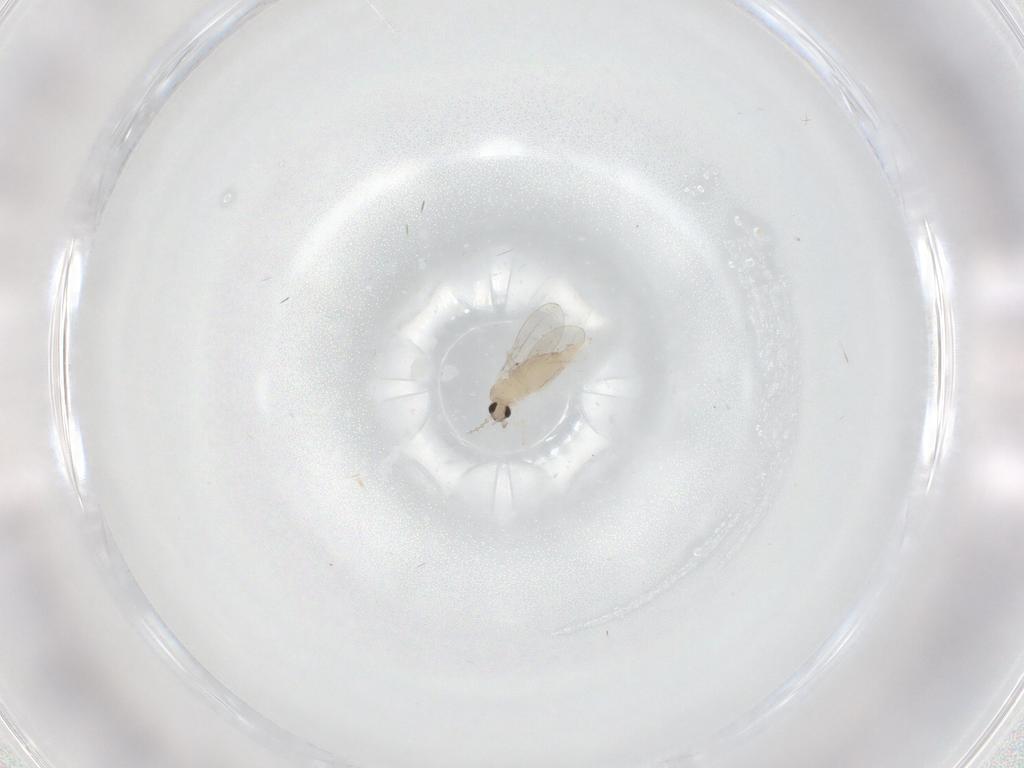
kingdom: Animalia
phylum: Arthropoda
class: Insecta
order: Diptera
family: Cecidomyiidae
